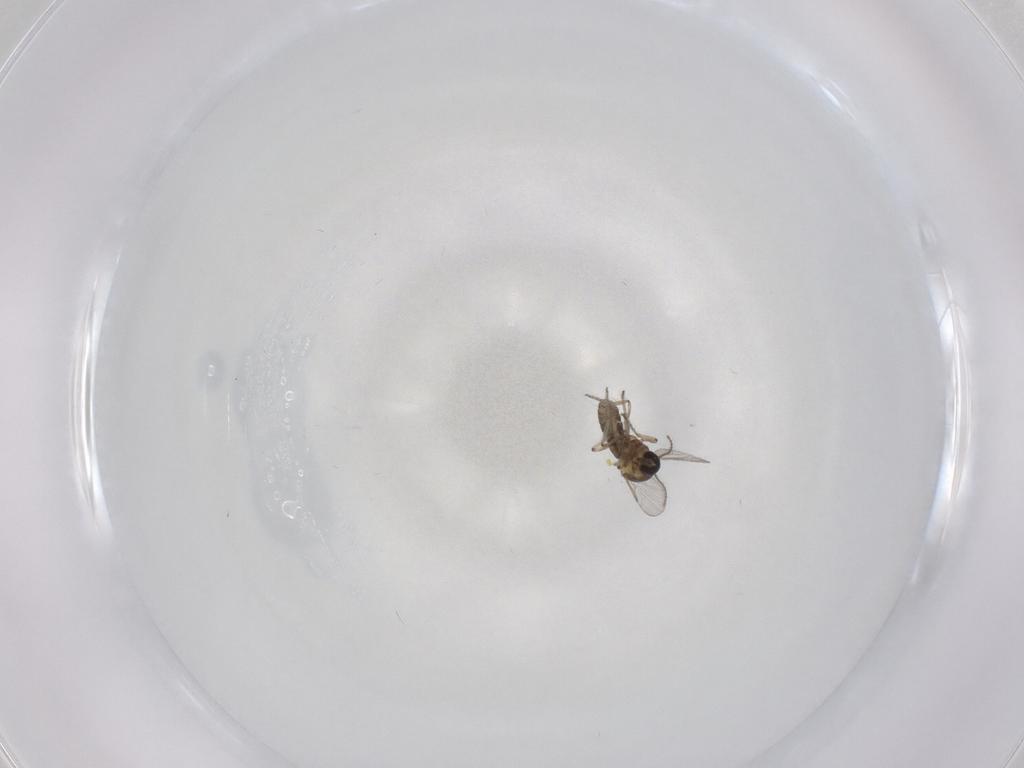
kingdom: Animalia
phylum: Arthropoda
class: Insecta
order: Diptera
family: Ceratopogonidae
